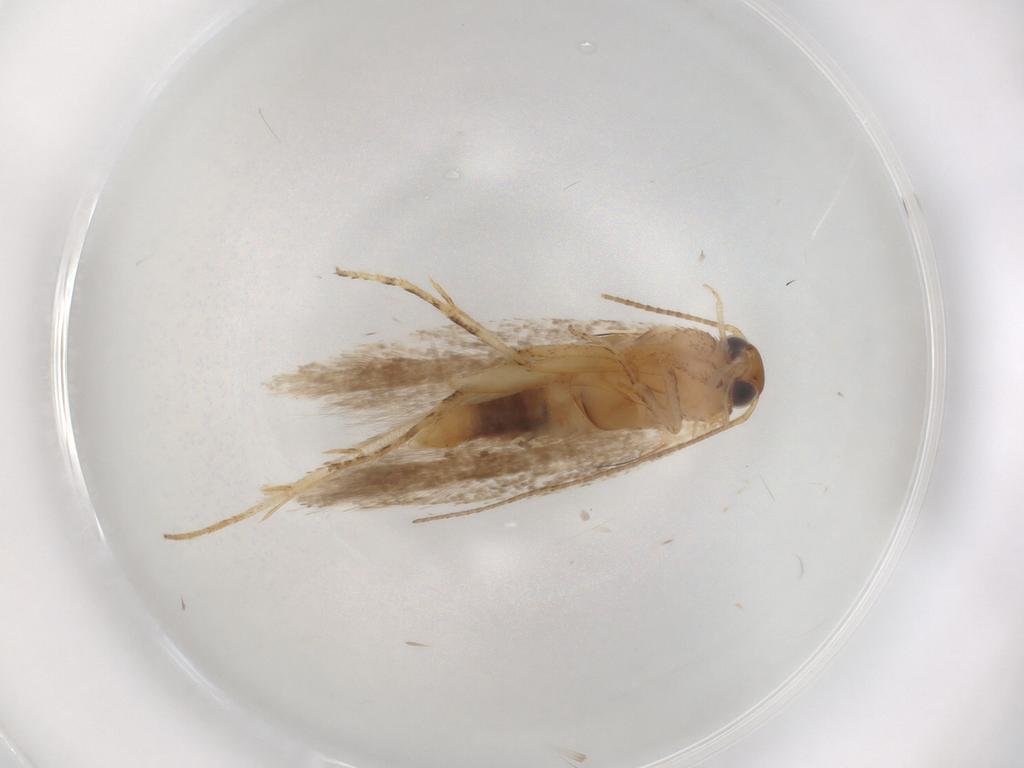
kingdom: Animalia
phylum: Arthropoda
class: Insecta
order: Lepidoptera
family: Gelechiidae
